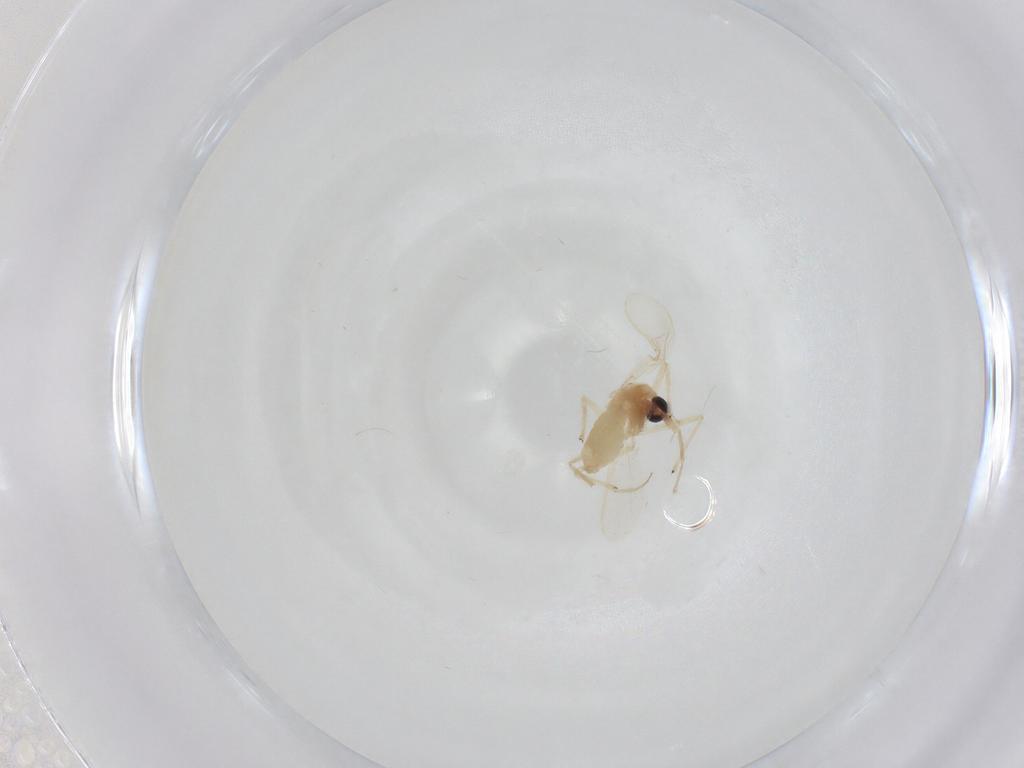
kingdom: Animalia
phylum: Arthropoda
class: Insecta
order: Diptera
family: Chironomidae
